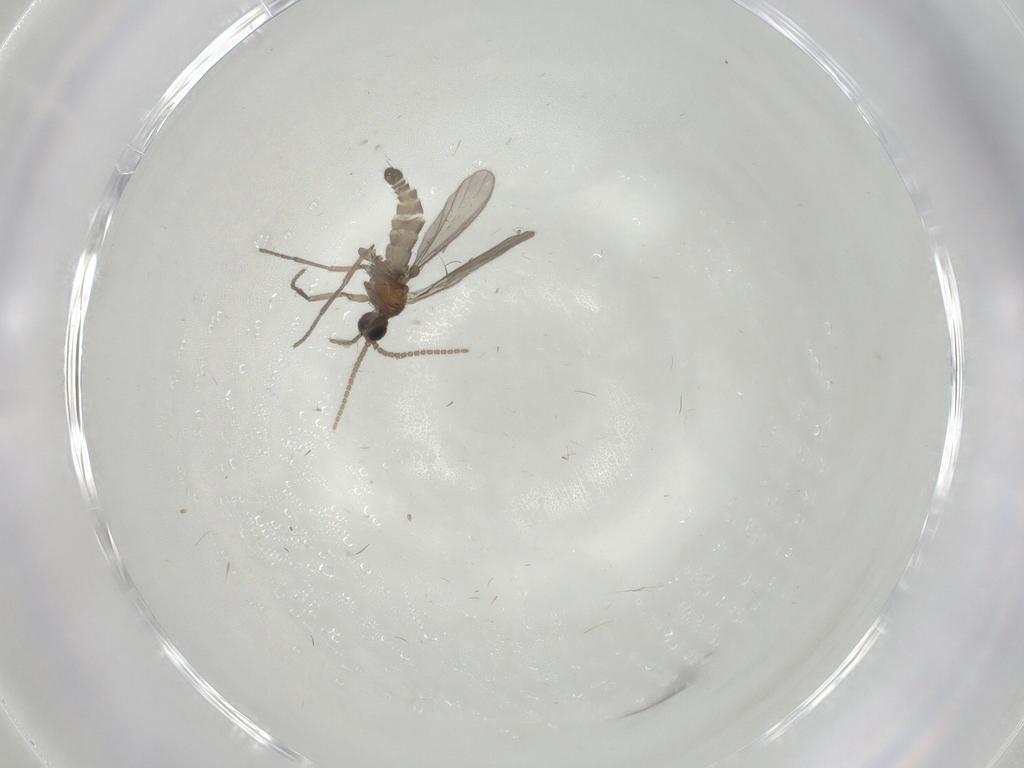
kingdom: Animalia
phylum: Arthropoda
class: Insecta
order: Diptera
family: Sciaridae
